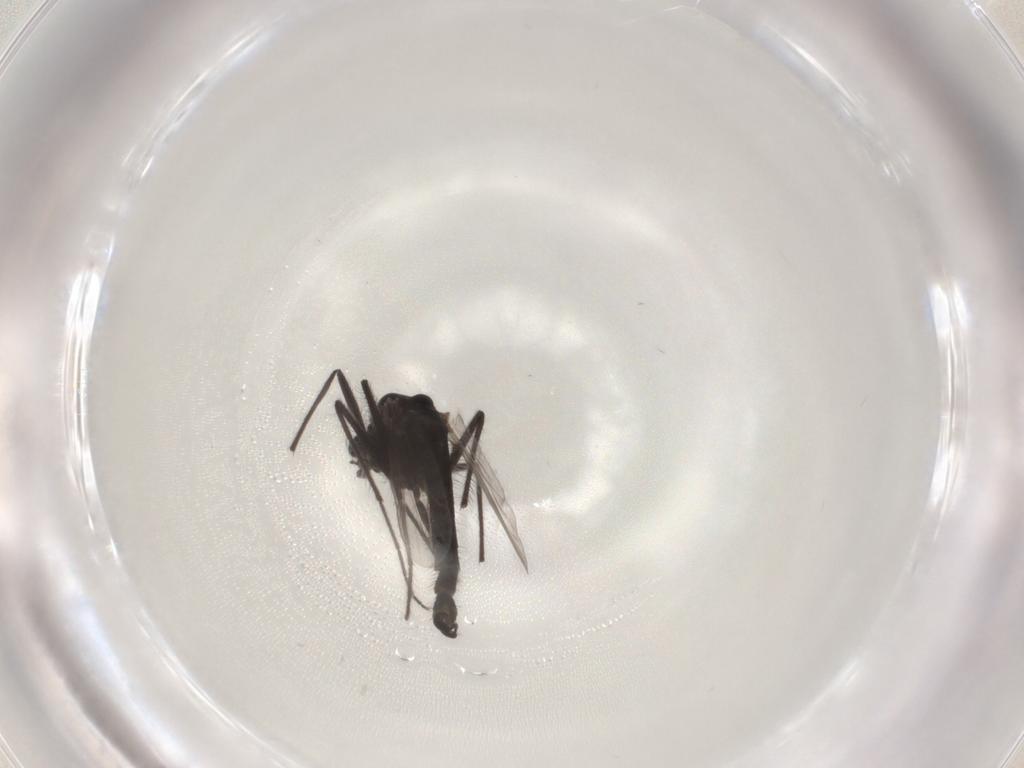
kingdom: Animalia
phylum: Arthropoda
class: Insecta
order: Diptera
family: Chironomidae
